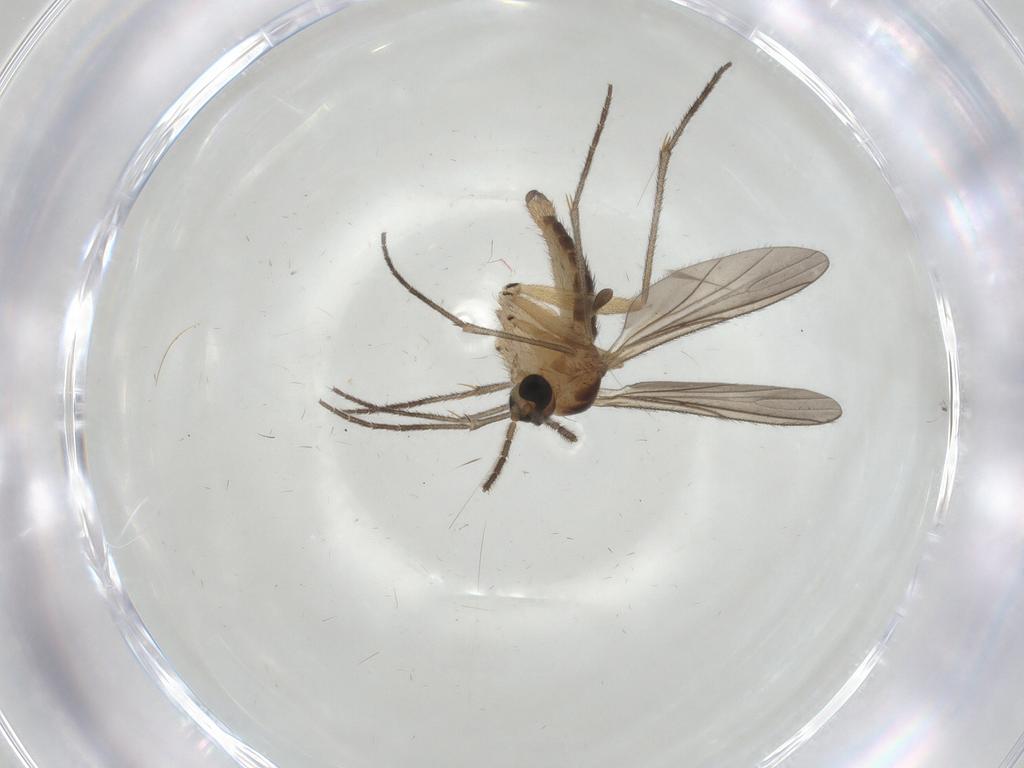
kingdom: Animalia
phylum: Arthropoda
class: Insecta
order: Diptera
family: Sciaridae
